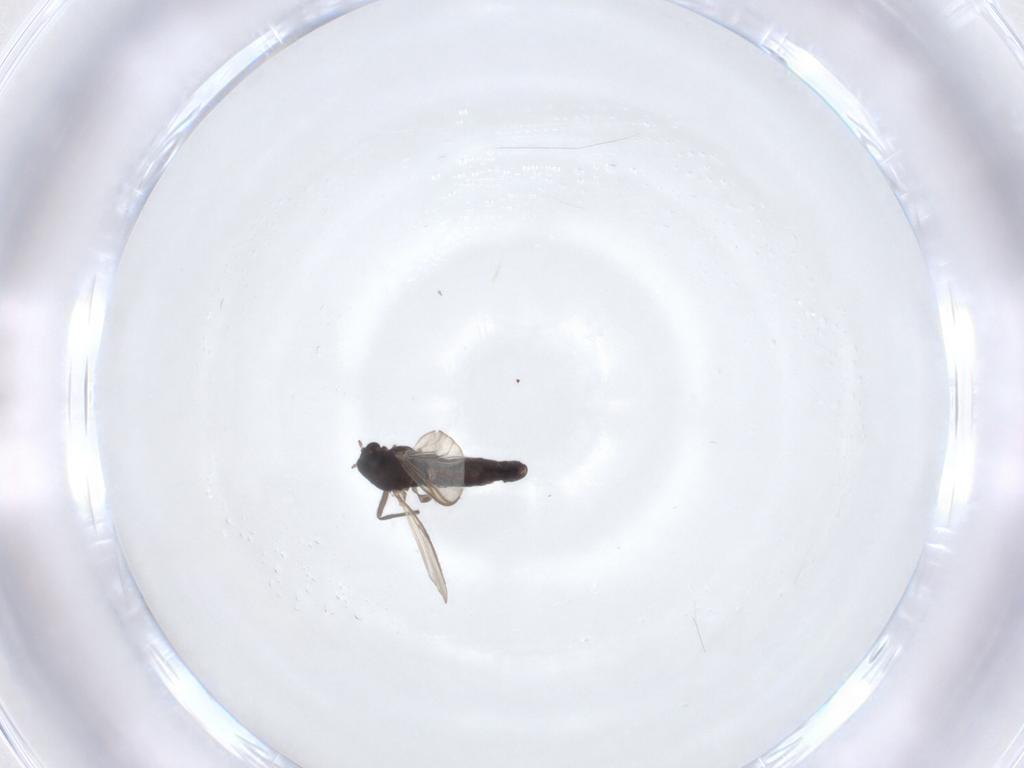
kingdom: Animalia
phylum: Arthropoda
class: Insecta
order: Diptera
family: Chironomidae
